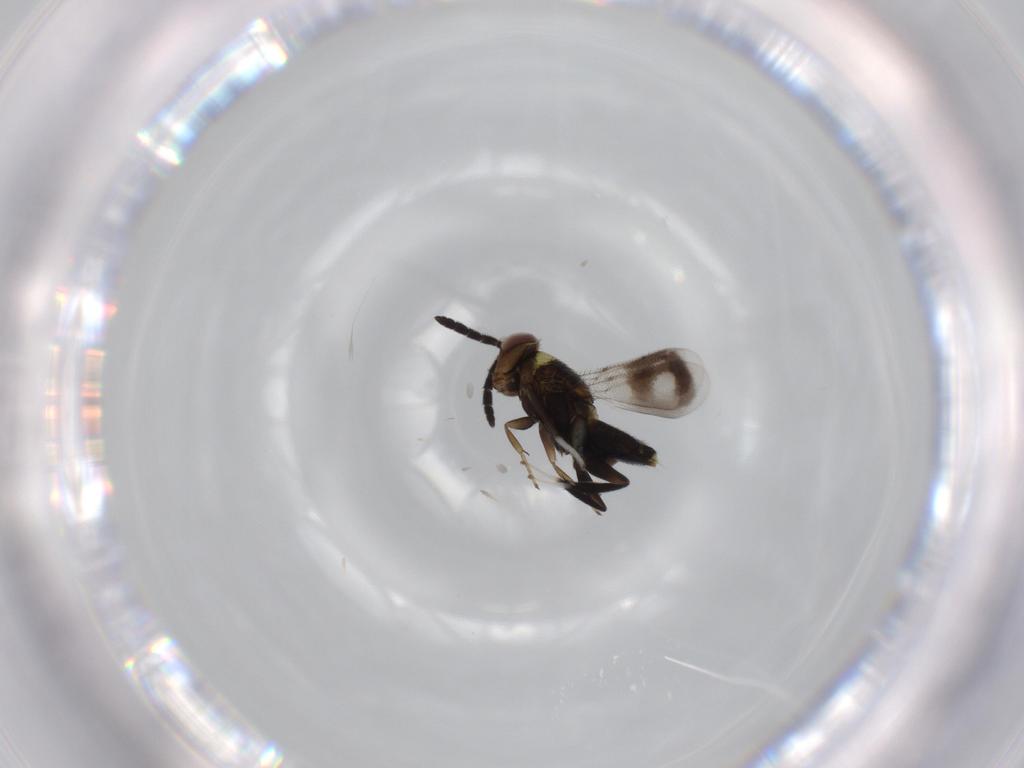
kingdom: Animalia
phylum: Arthropoda
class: Insecta
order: Hymenoptera
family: Aphelinidae
